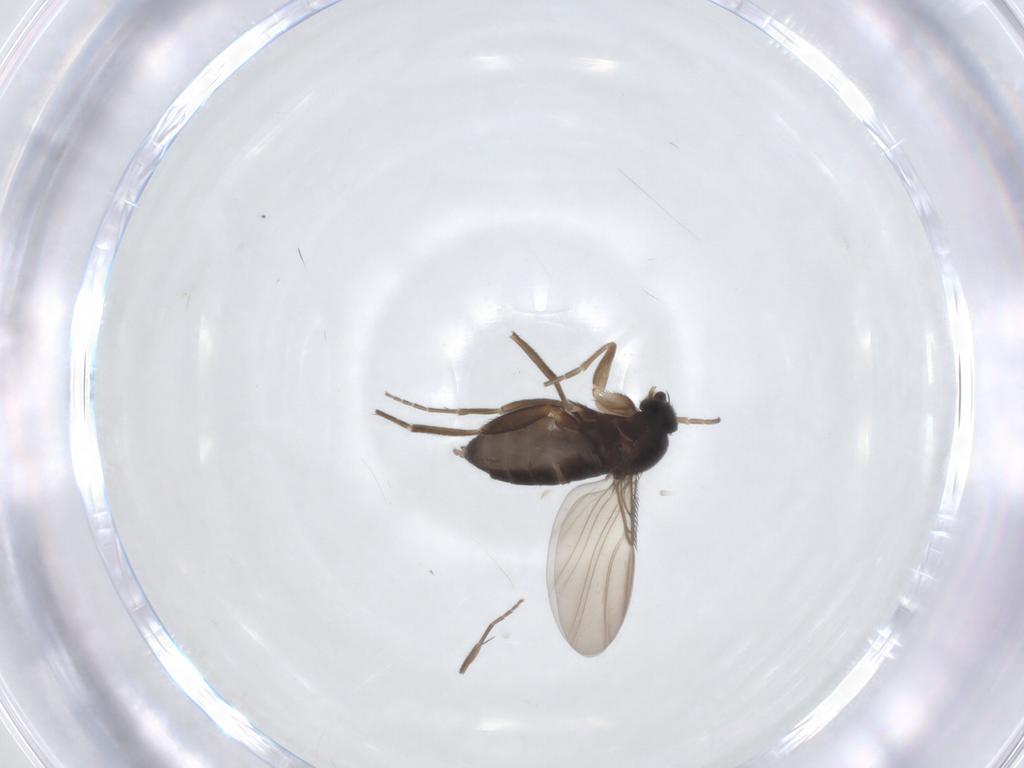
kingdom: Animalia
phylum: Arthropoda
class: Insecta
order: Diptera
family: Phoridae
